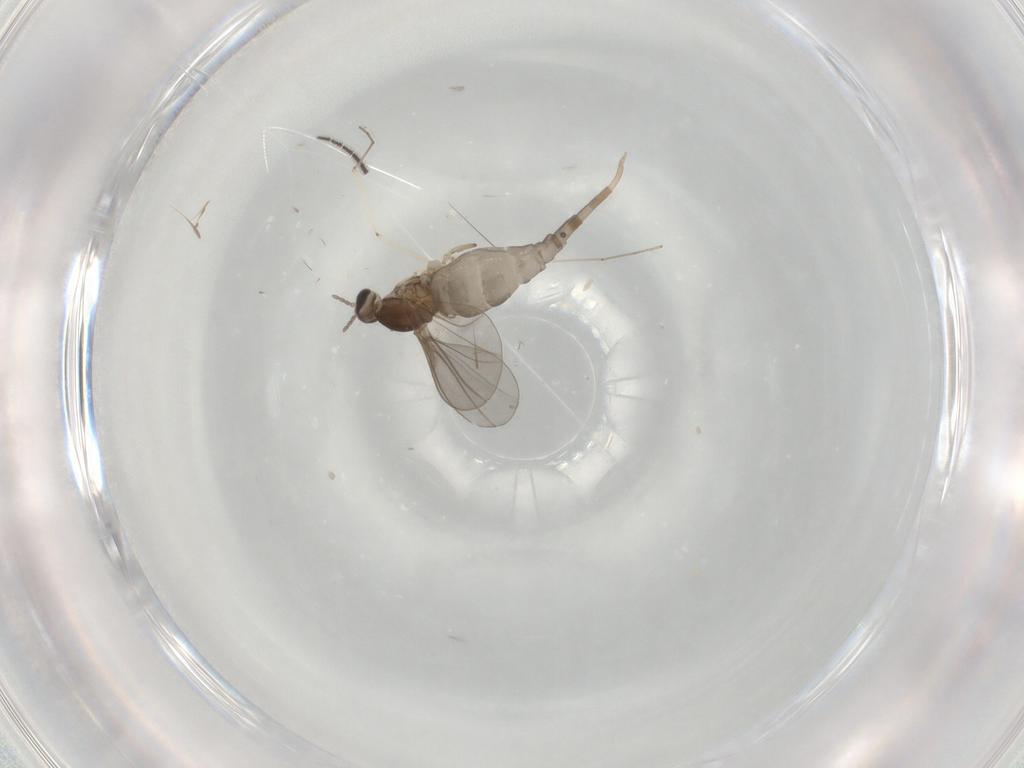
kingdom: Animalia
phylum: Arthropoda
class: Insecta
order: Diptera
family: Cecidomyiidae
